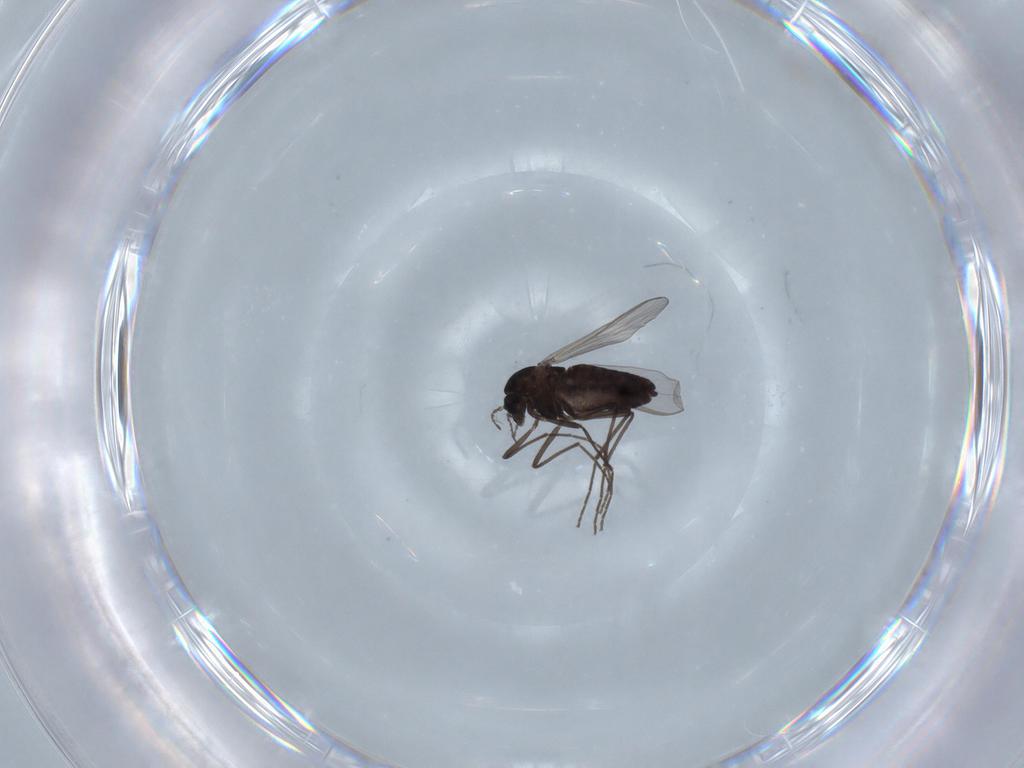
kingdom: Animalia
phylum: Arthropoda
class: Insecta
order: Diptera
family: Chironomidae
